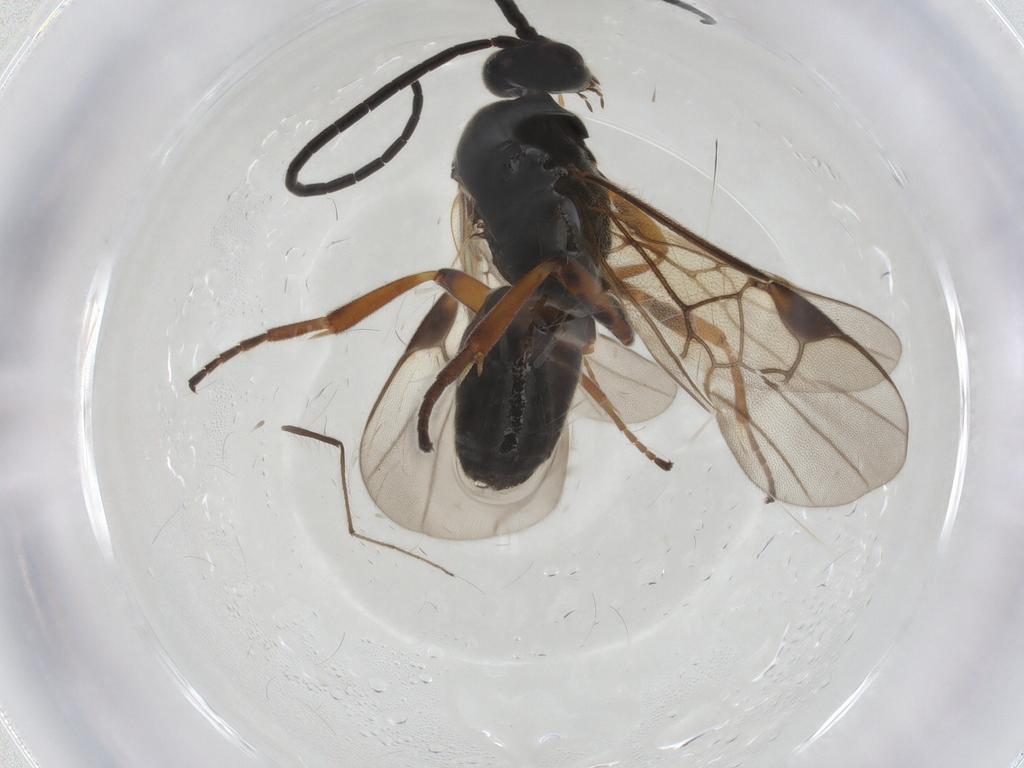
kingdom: Animalia
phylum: Arthropoda
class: Insecta
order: Hymenoptera
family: Braconidae
